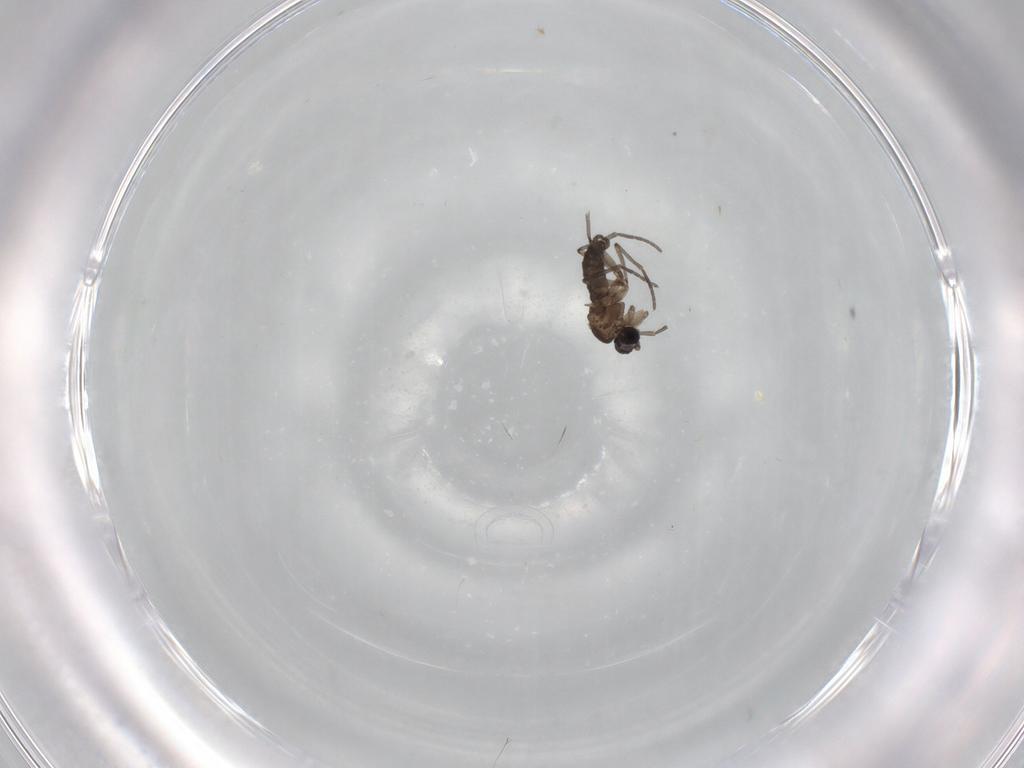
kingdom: Animalia
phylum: Arthropoda
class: Insecta
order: Diptera
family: Sciaridae
